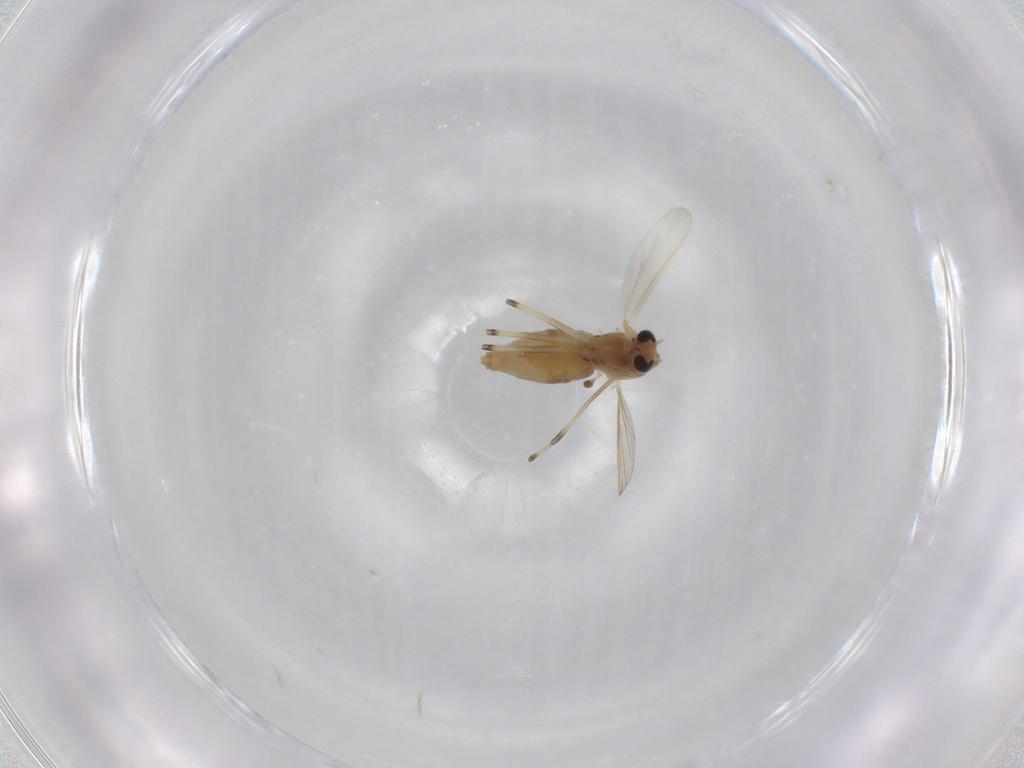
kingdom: Animalia
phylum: Arthropoda
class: Insecta
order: Diptera
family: Chironomidae
